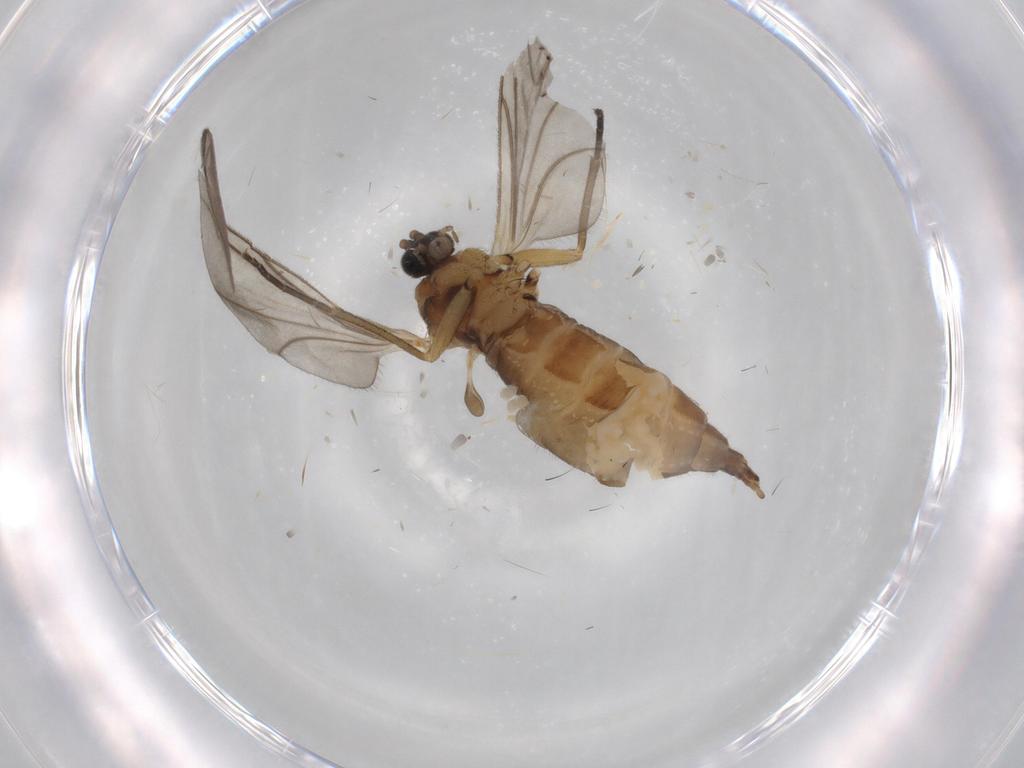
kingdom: Animalia
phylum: Arthropoda
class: Insecta
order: Diptera
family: Sciaridae
